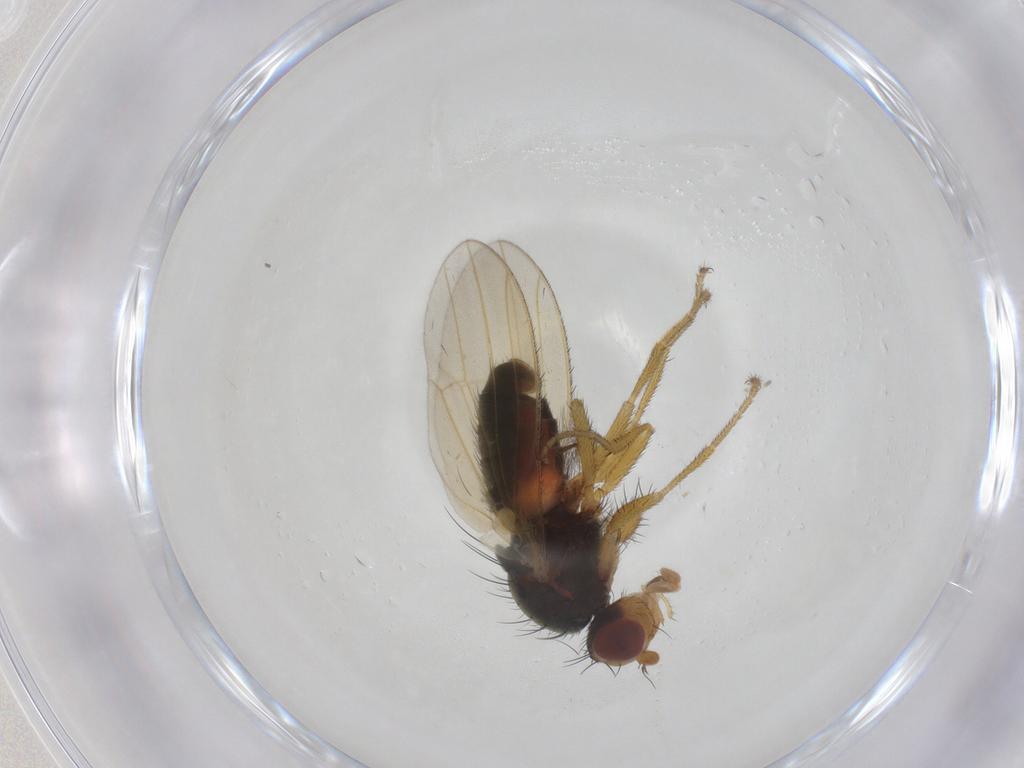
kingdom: Animalia
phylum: Arthropoda
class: Insecta
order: Diptera
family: Heleomyzidae
